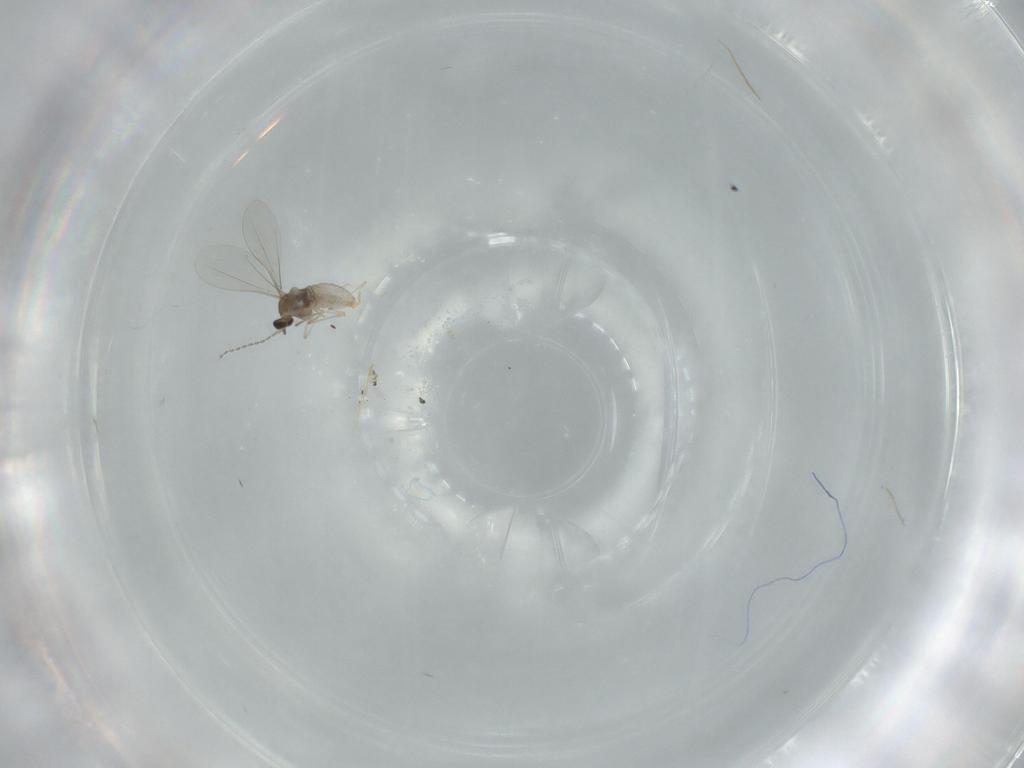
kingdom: Animalia
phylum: Arthropoda
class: Insecta
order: Diptera
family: Cecidomyiidae
